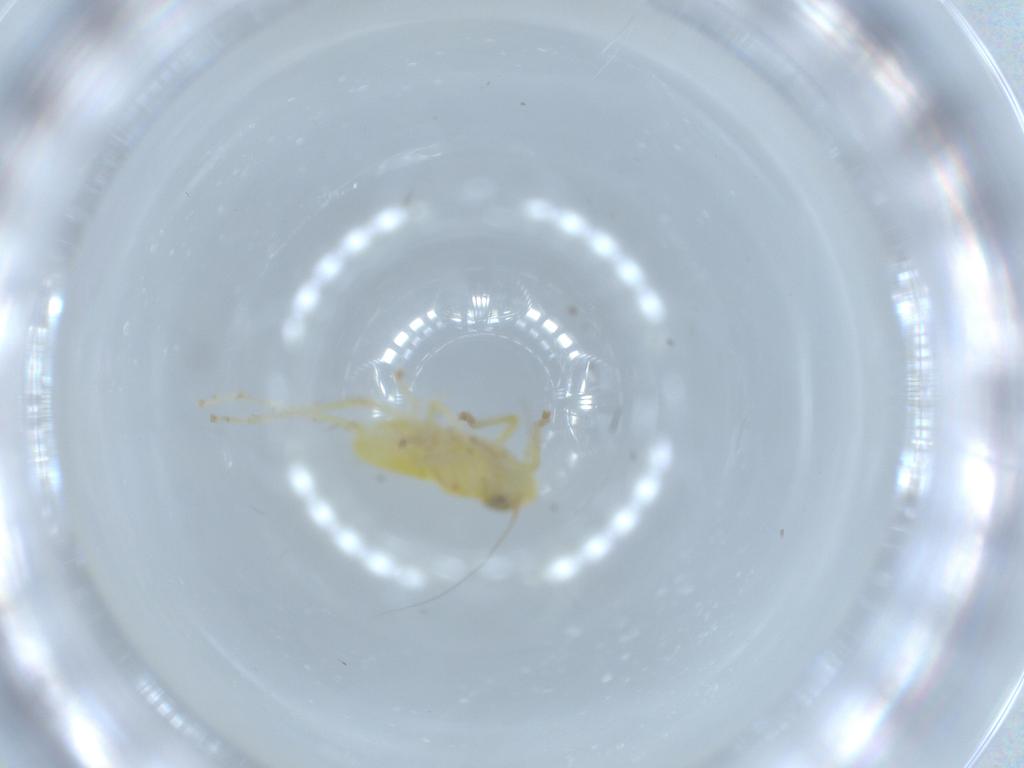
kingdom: Animalia
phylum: Arthropoda
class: Insecta
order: Hemiptera
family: Cicadellidae
